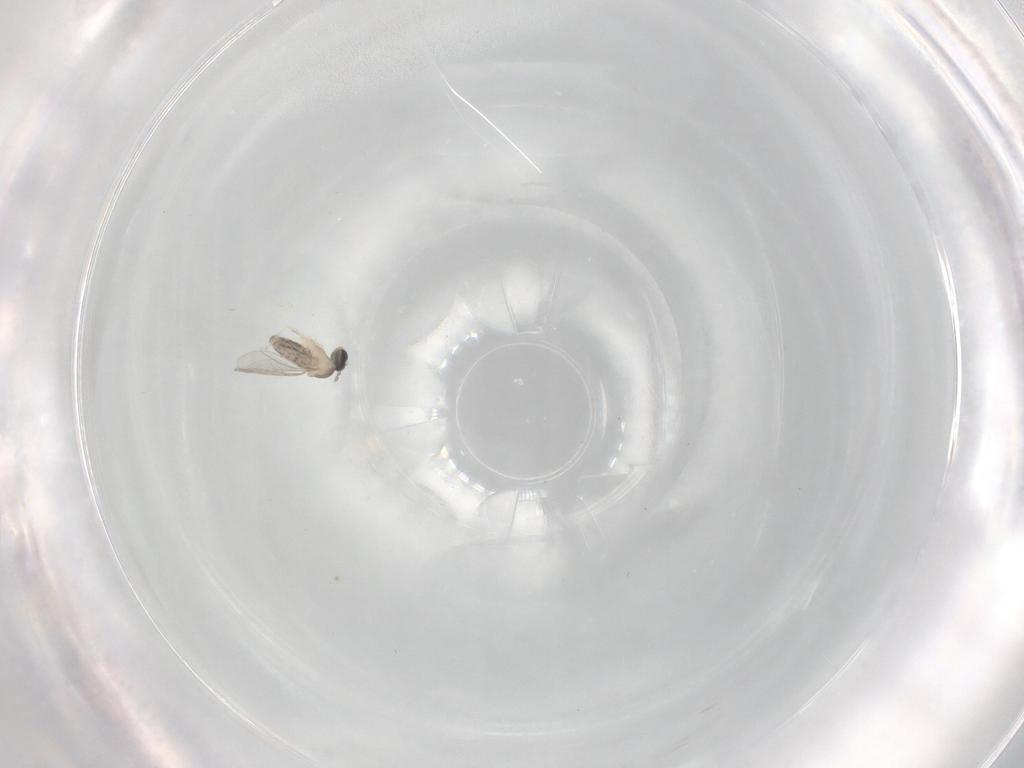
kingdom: Animalia
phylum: Arthropoda
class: Insecta
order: Diptera
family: Cecidomyiidae
